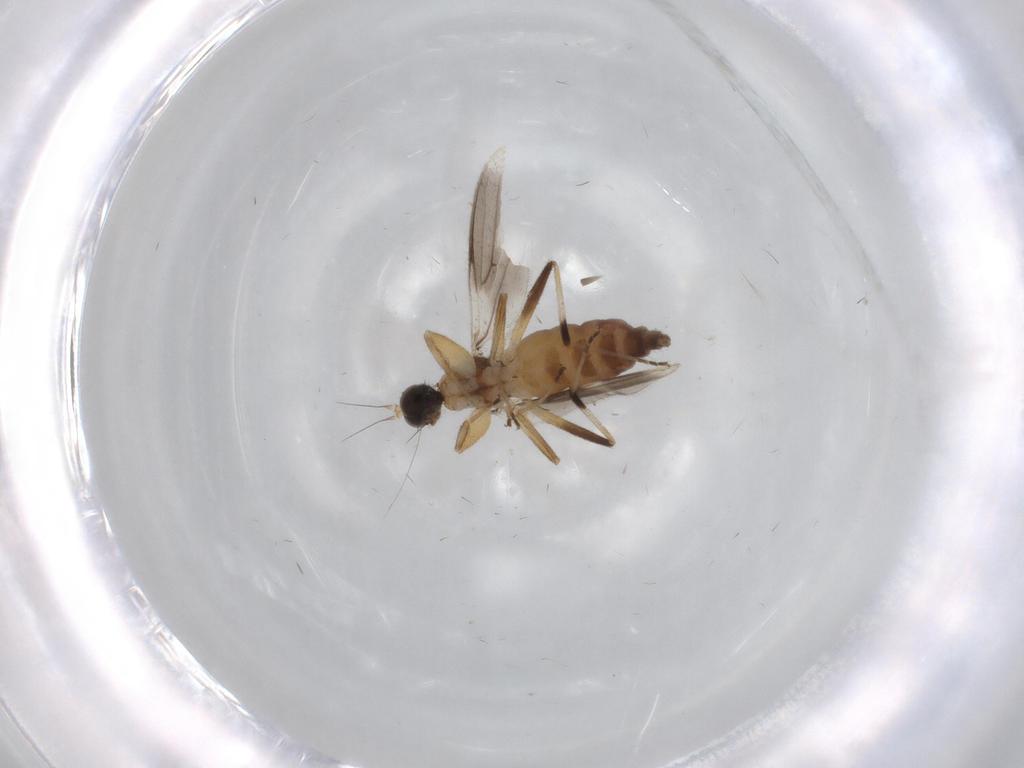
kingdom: Animalia
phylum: Arthropoda
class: Insecta
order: Diptera
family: Hybotidae
